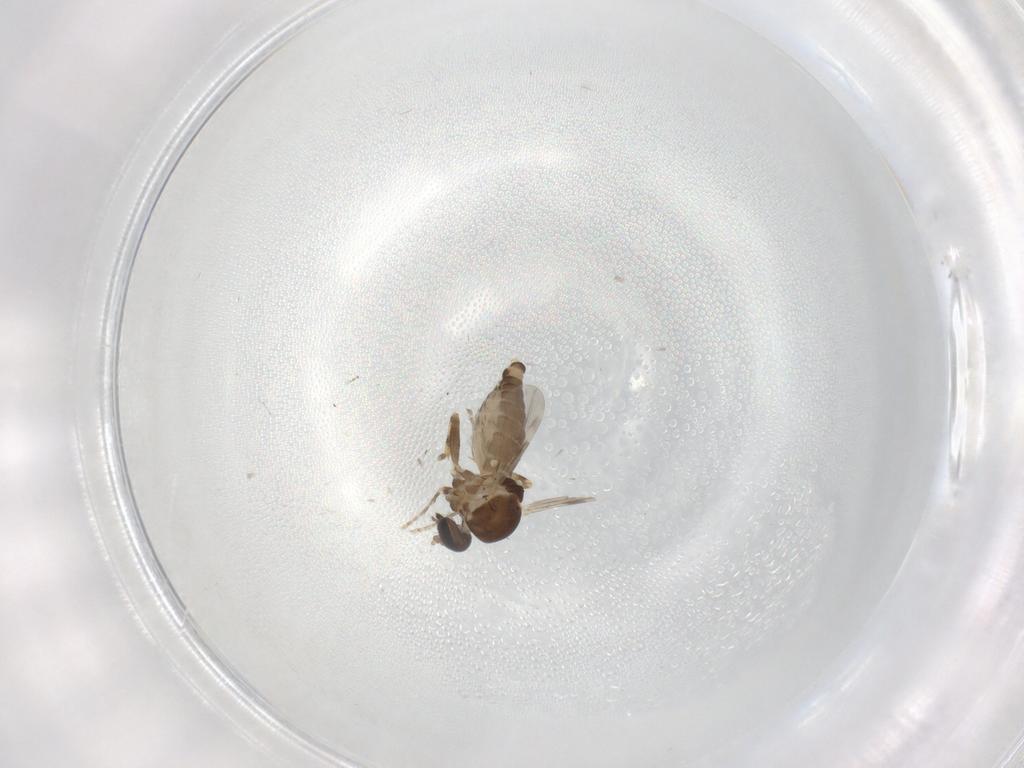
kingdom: Animalia
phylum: Arthropoda
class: Insecta
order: Diptera
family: Ceratopogonidae
